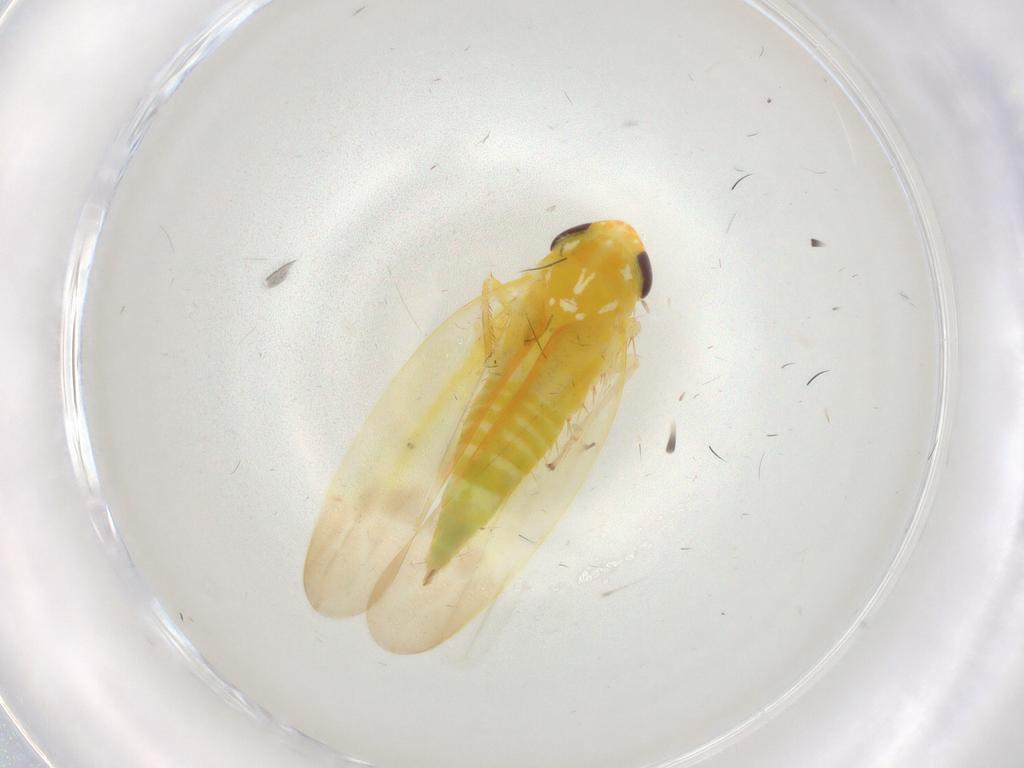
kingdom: Animalia
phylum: Arthropoda
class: Insecta
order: Hemiptera
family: Cicadellidae
